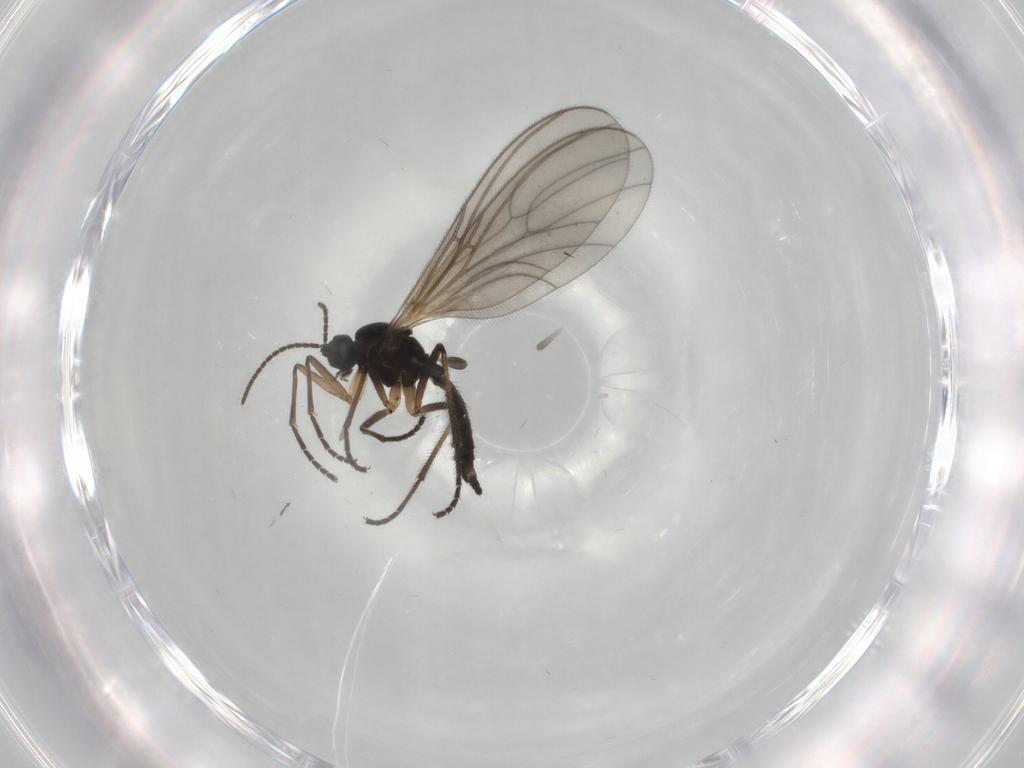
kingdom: Animalia
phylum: Arthropoda
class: Insecta
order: Diptera
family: Sciaridae
